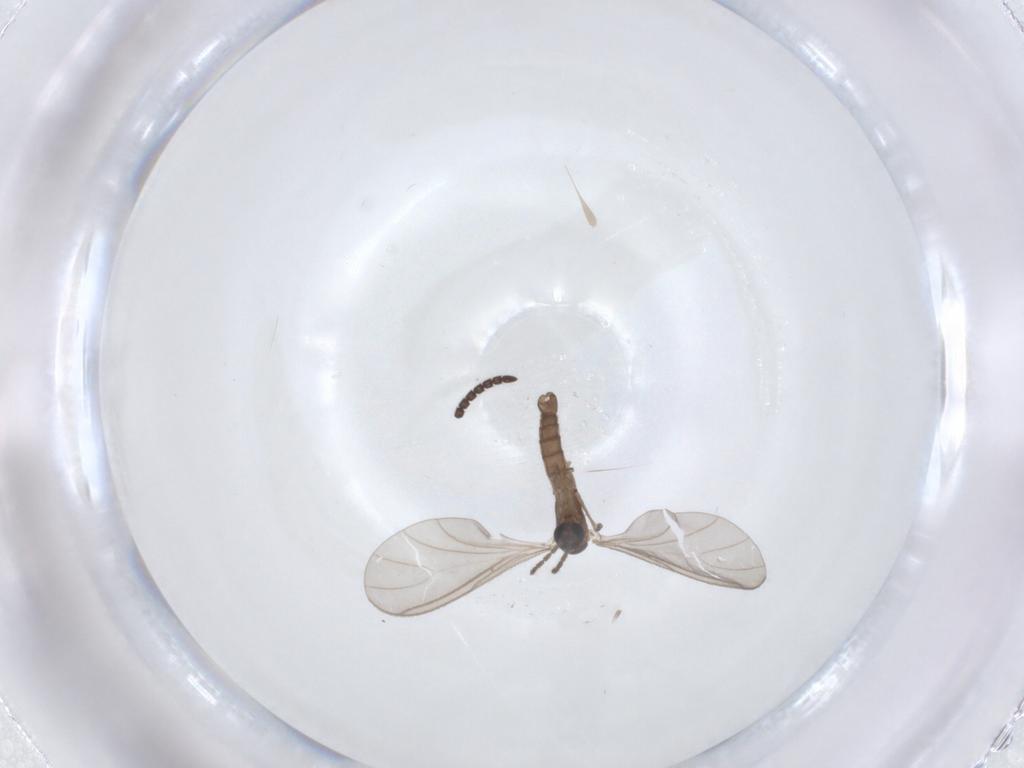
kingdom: Animalia
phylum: Arthropoda
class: Insecta
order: Diptera
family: Sciaridae
